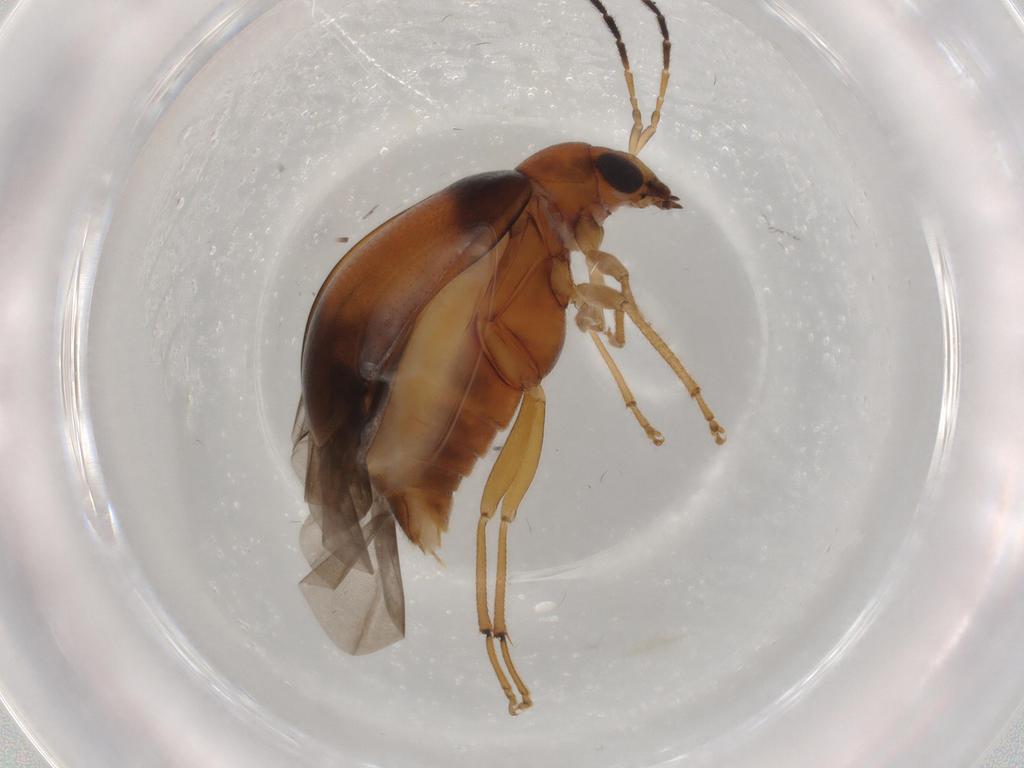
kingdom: Animalia
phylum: Arthropoda
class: Insecta
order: Coleoptera
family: Chrysomelidae
